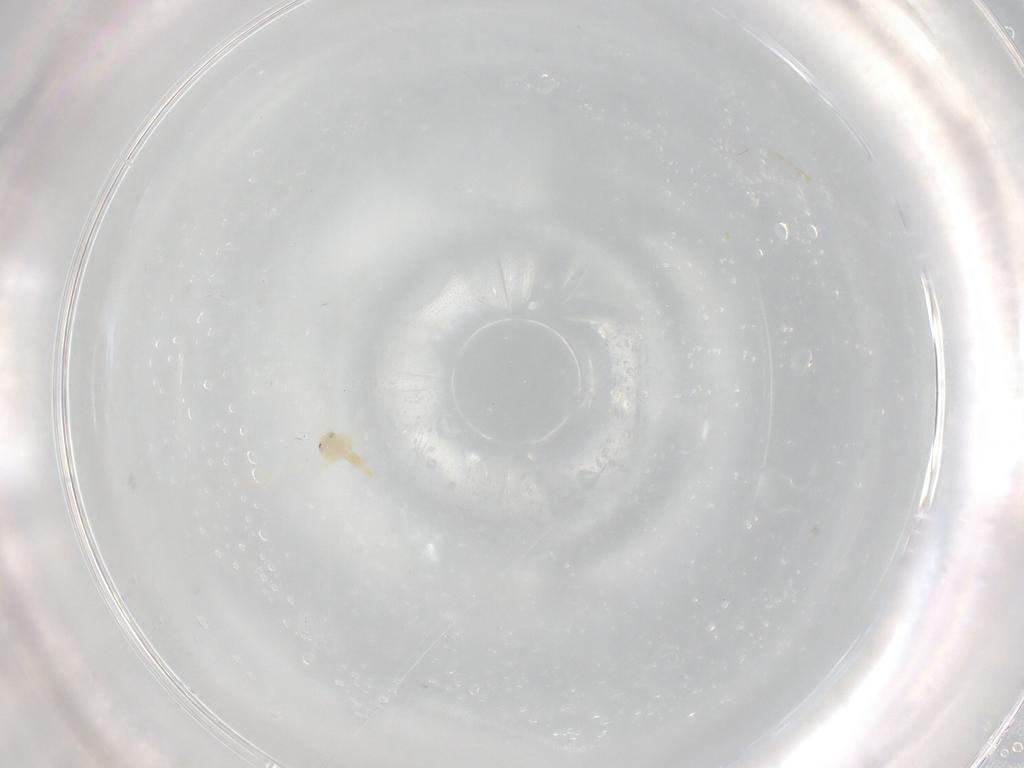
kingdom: Animalia
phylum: Arthropoda
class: Insecta
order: Hemiptera
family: Aleyrodidae
